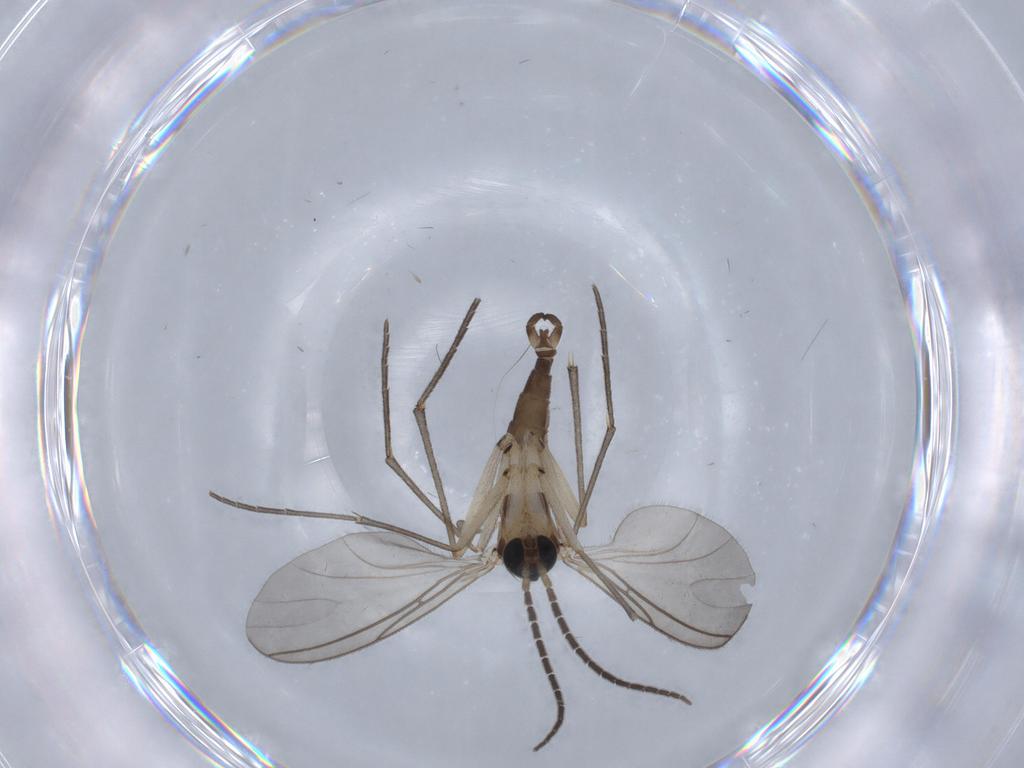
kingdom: Animalia
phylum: Arthropoda
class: Insecta
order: Diptera
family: Sciaridae
